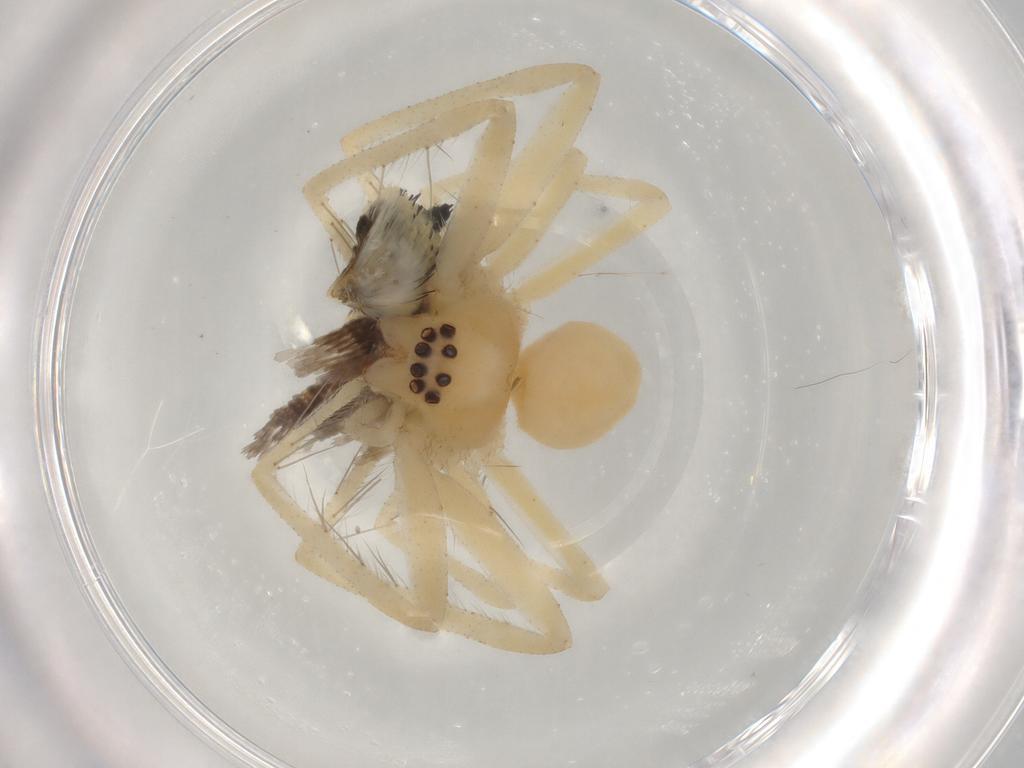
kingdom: Animalia
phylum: Arthropoda
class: Arachnida
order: Araneae
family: Sparassidae
